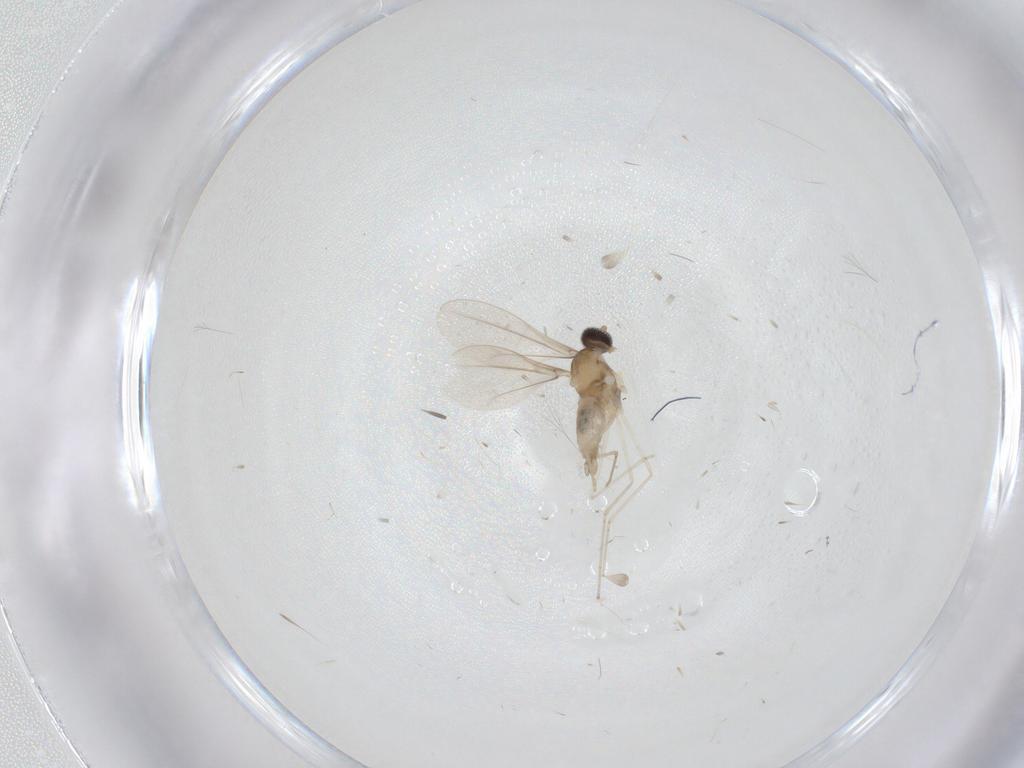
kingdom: Animalia
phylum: Arthropoda
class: Insecta
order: Diptera
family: Cecidomyiidae
